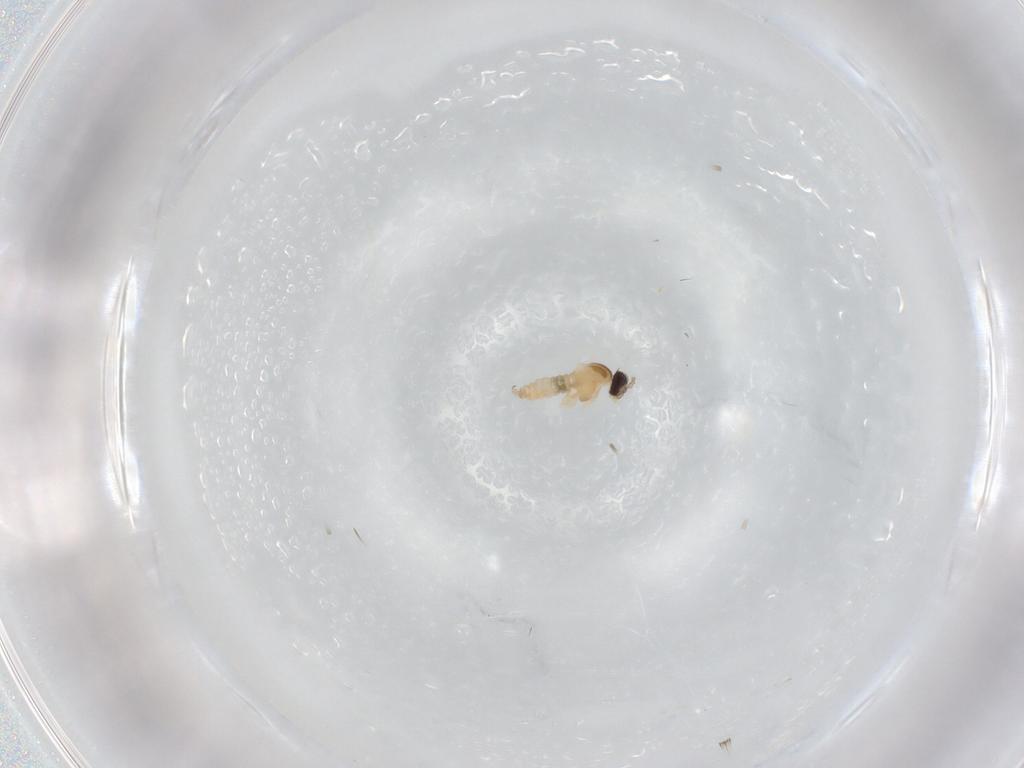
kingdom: Animalia
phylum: Arthropoda
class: Insecta
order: Diptera
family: Cecidomyiidae
